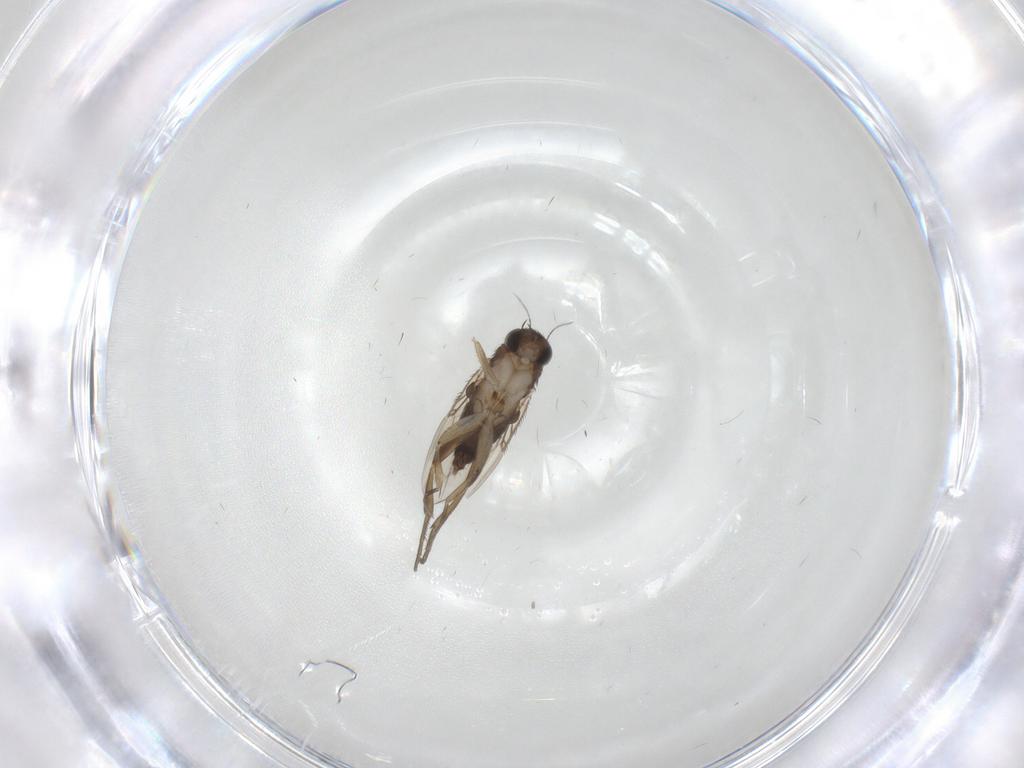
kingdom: Animalia
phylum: Arthropoda
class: Insecta
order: Diptera
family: Phoridae
